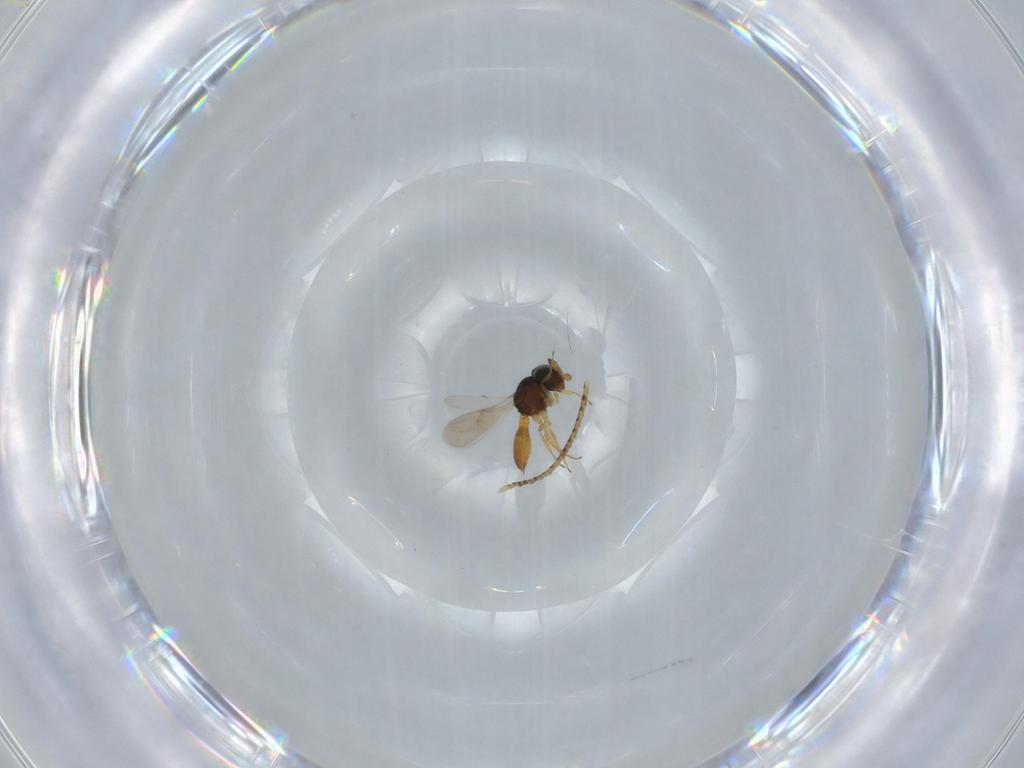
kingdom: Animalia
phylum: Arthropoda
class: Insecta
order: Hymenoptera
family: Scelionidae
